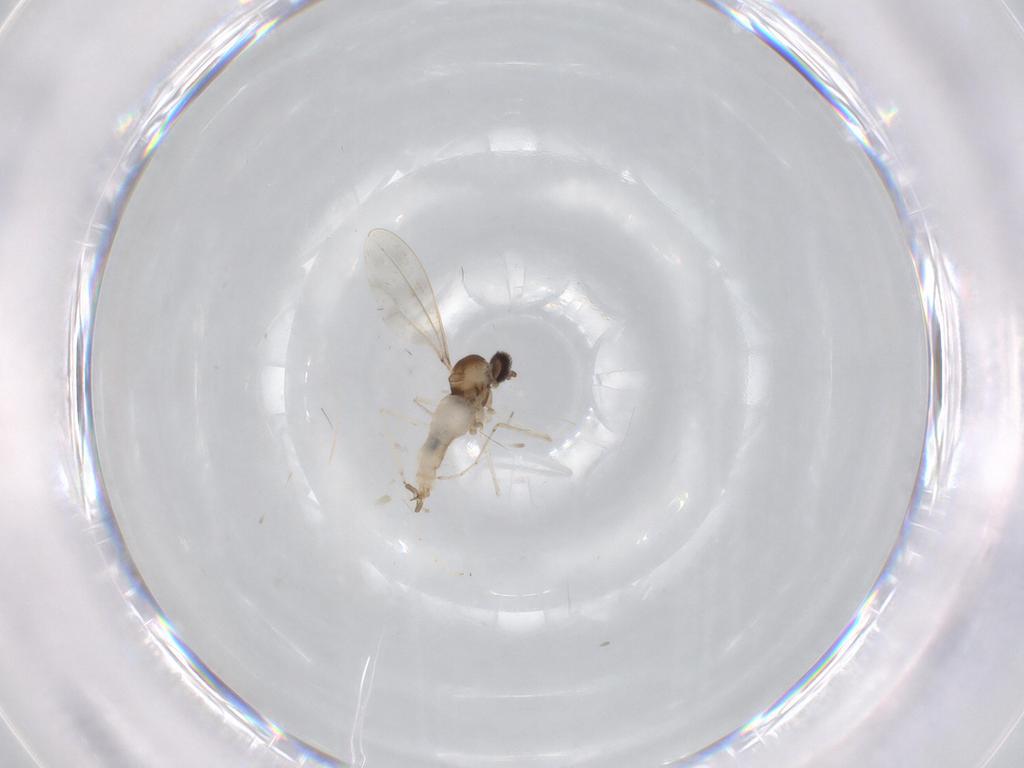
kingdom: Animalia
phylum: Arthropoda
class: Insecta
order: Diptera
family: Cecidomyiidae
